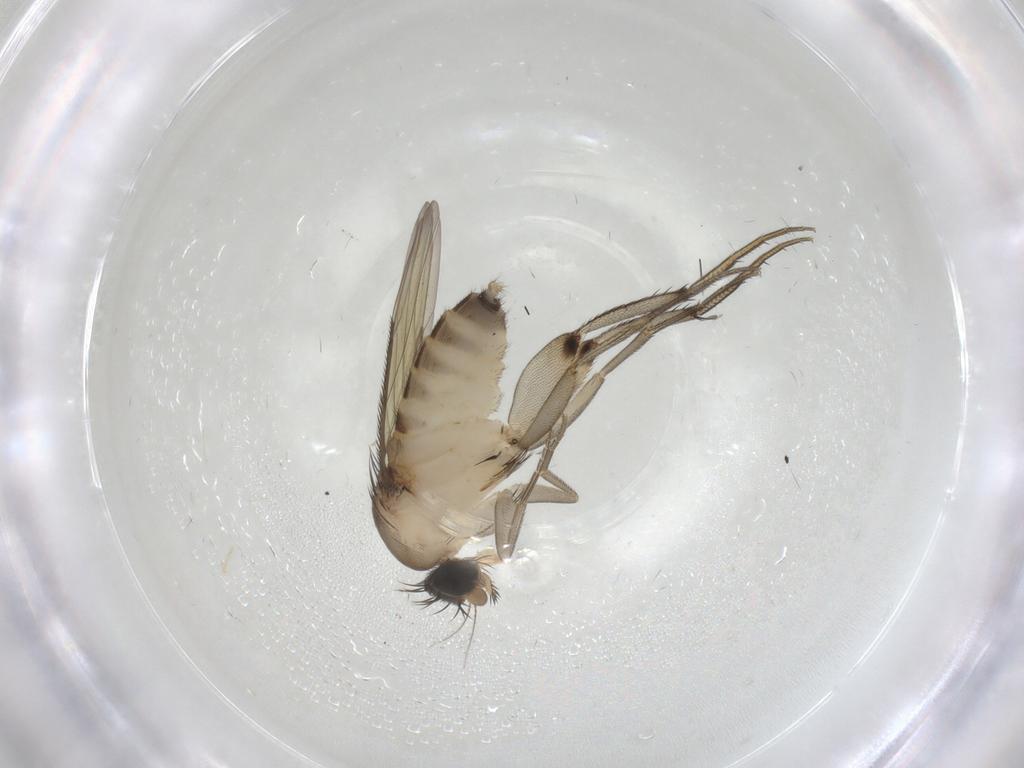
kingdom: Animalia
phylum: Arthropoda
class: Insecta
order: Diptera
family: Phoridae
